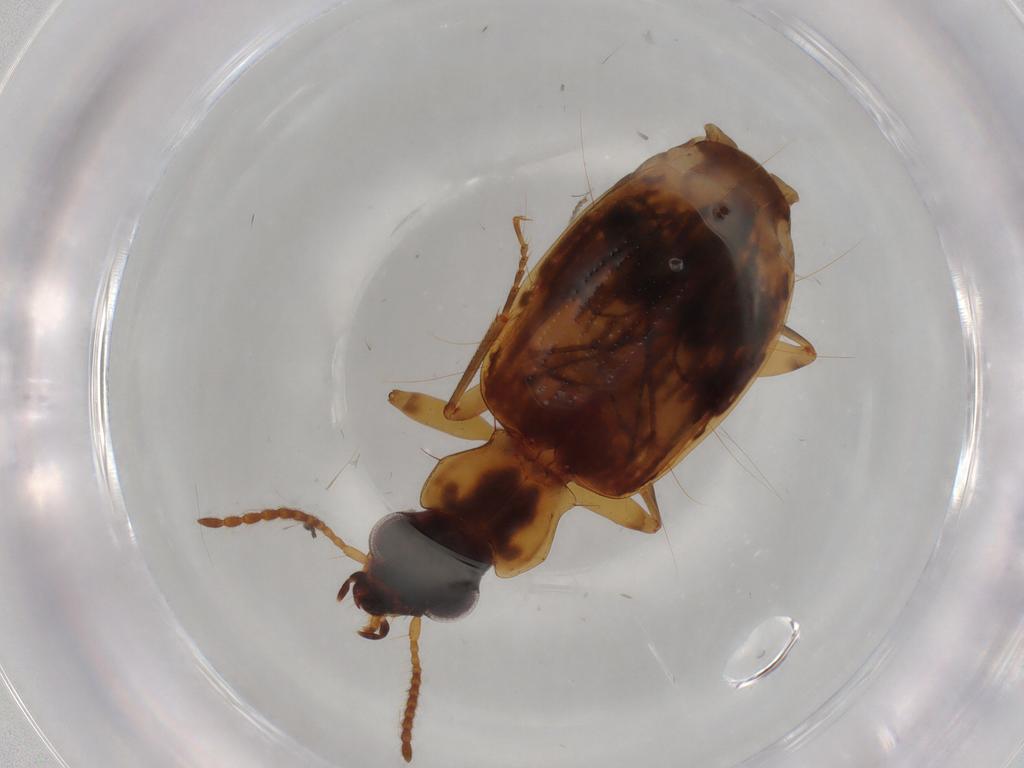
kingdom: Animalia
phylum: Arthropoda
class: Insecta
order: Coleoptera
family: Carabidae
